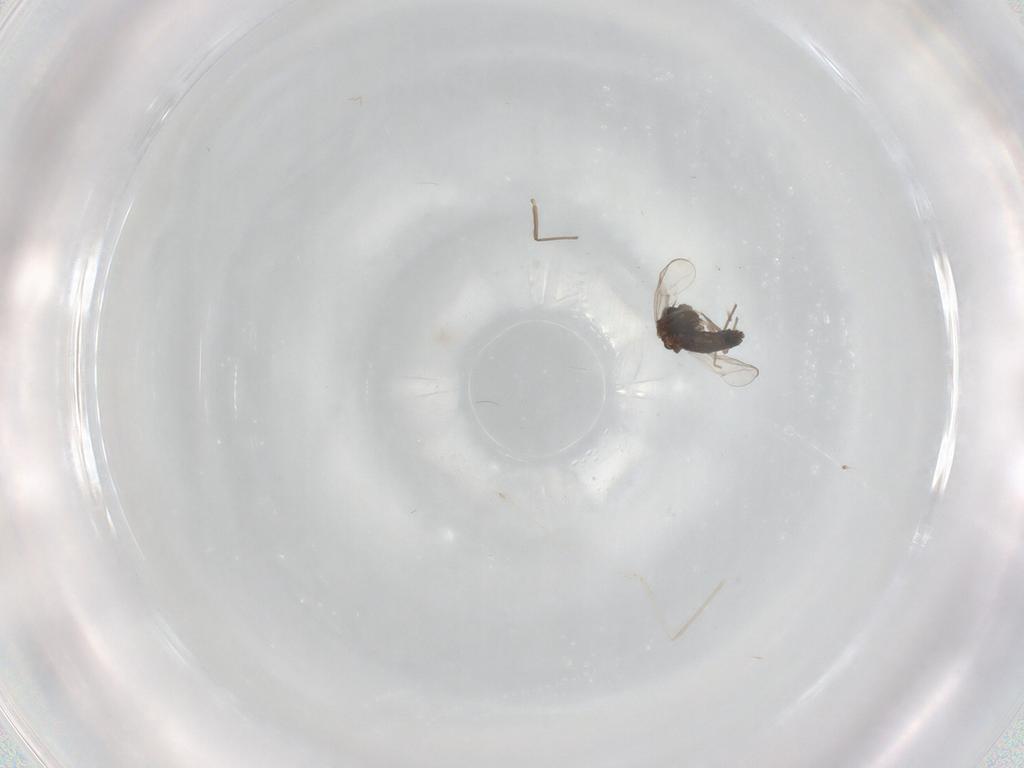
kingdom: Animalia
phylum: Arthropoda
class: Insecta
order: Diptera
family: Chironomidae
